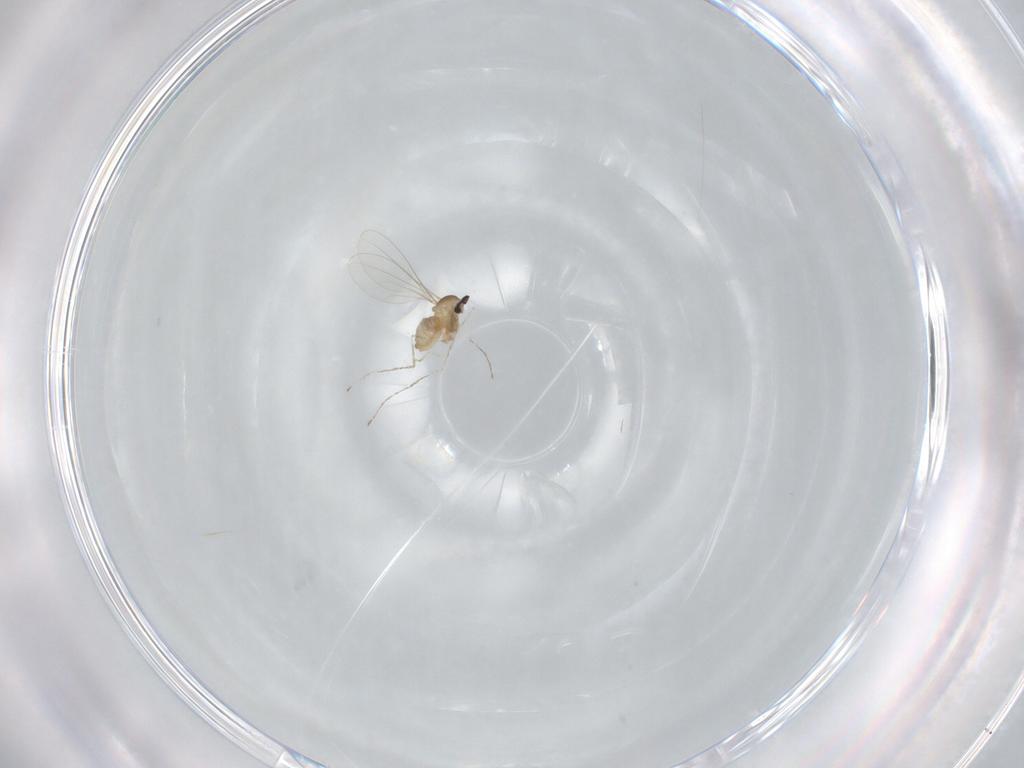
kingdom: Animalia
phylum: Arthropoda
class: Insecta
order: Diptera
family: Cecidomyiidae
